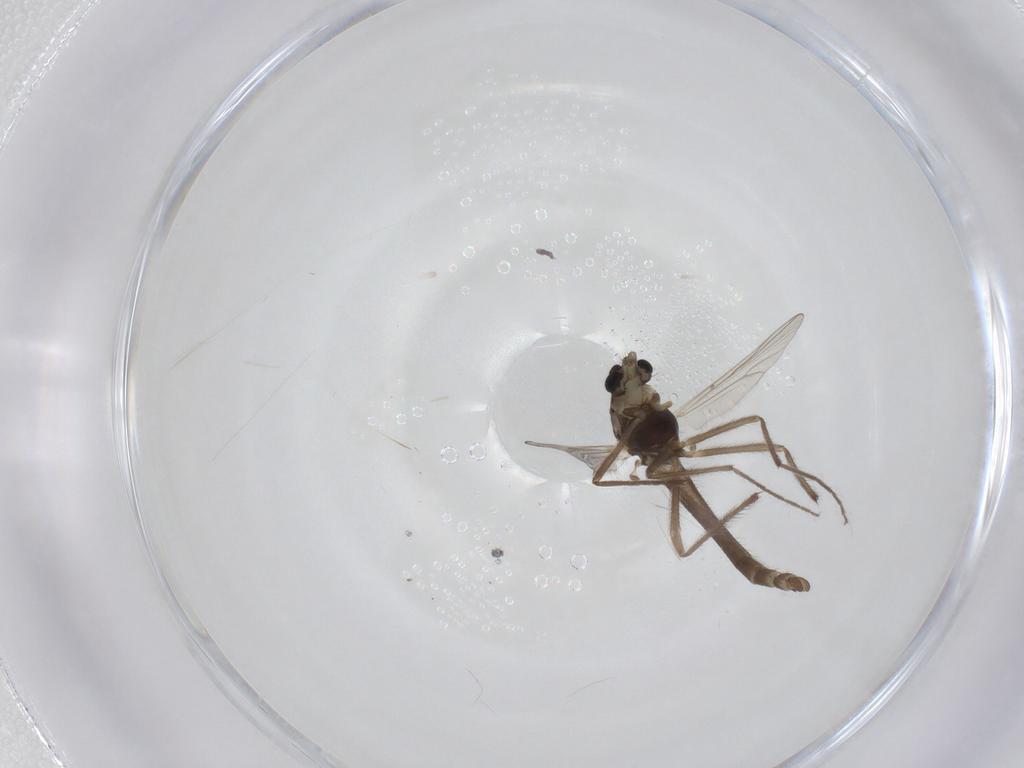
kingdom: Animalia
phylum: Arthropoda
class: Insecta
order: Diptera
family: Chironomidae
